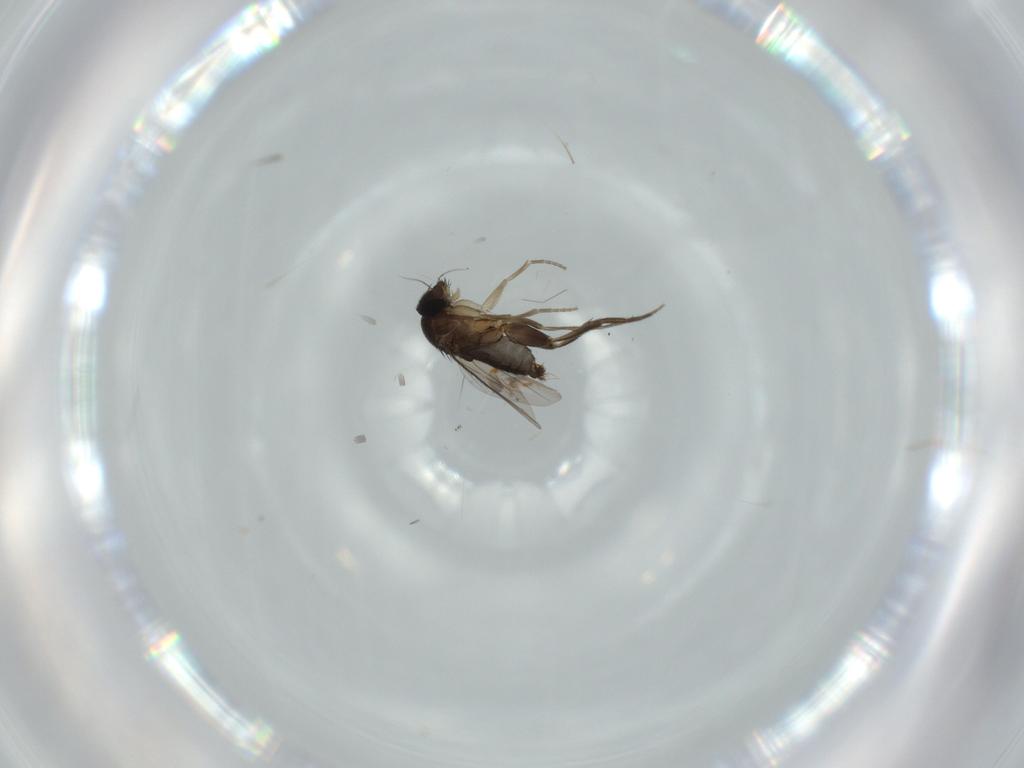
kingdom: Animalia
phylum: Arthropoda
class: Insecta
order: Diptera
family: Phoridae
